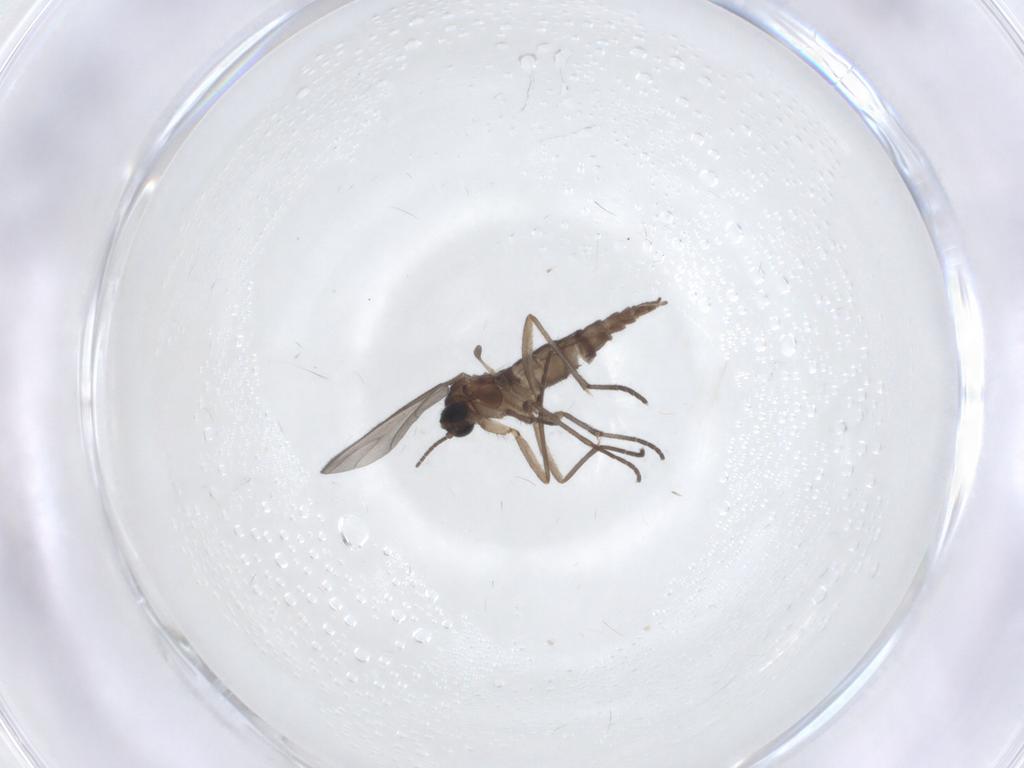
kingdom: Animalia
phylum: Arthropoda
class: Insecta
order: Diptera
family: Sciaridae
